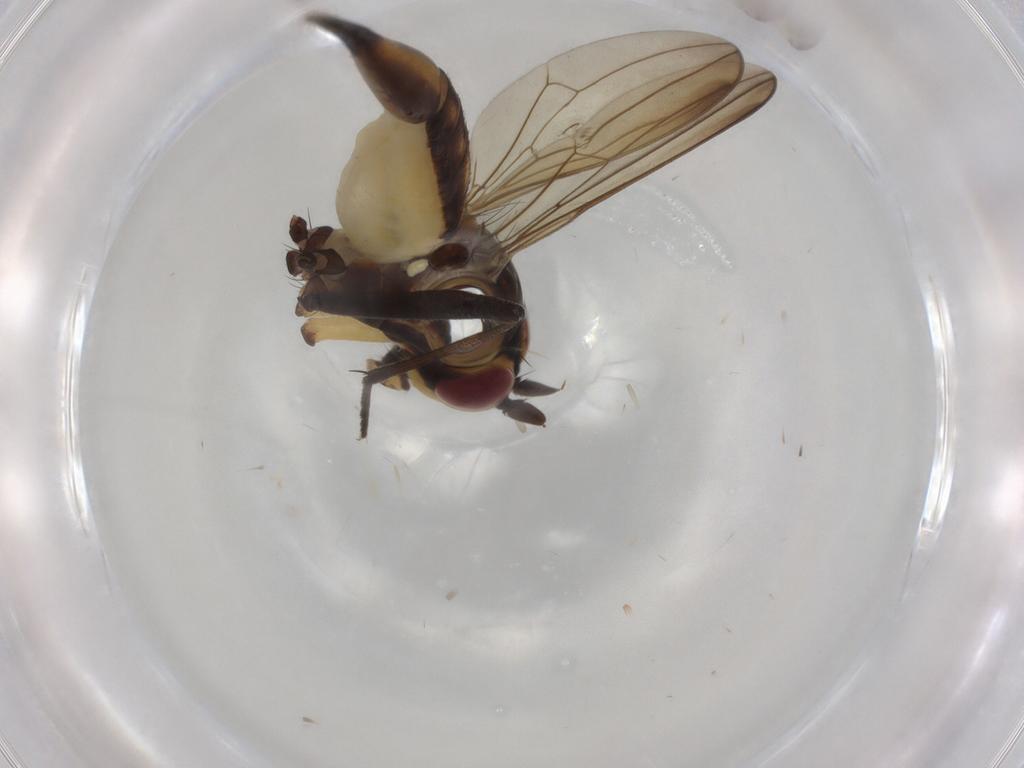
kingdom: Animalia
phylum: Arthropoda
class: Insecta
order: Diptera
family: Neriidae
